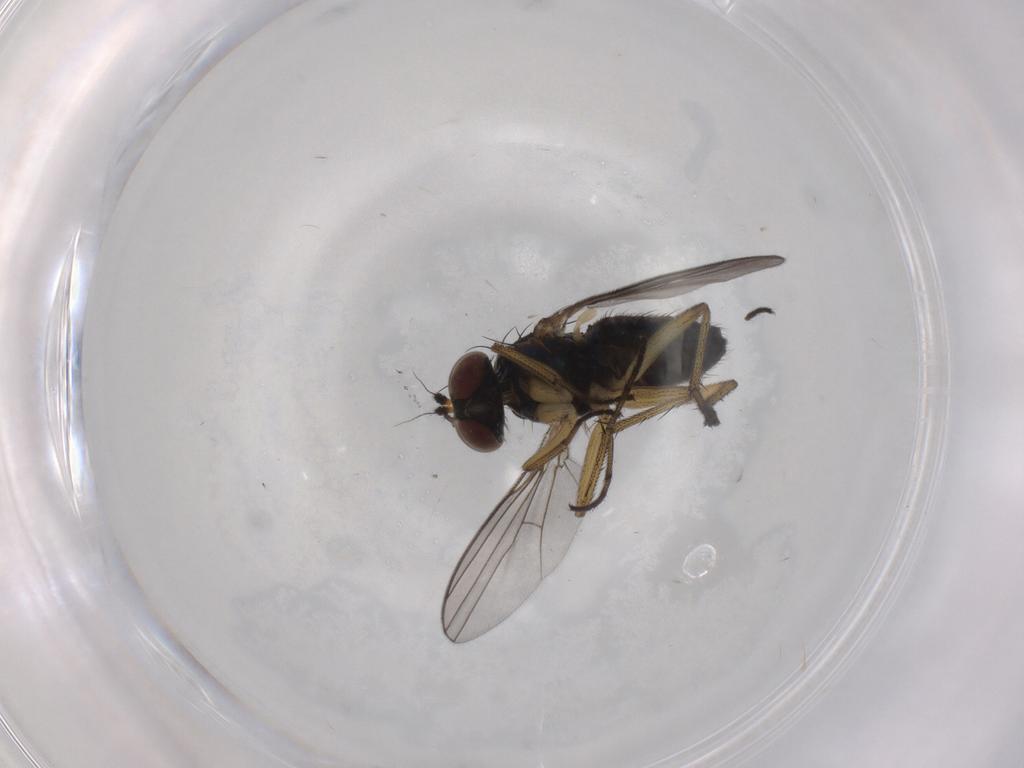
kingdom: Animalia
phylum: Arthropoda
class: Insecta
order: Diptera
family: Dolichopodidae
